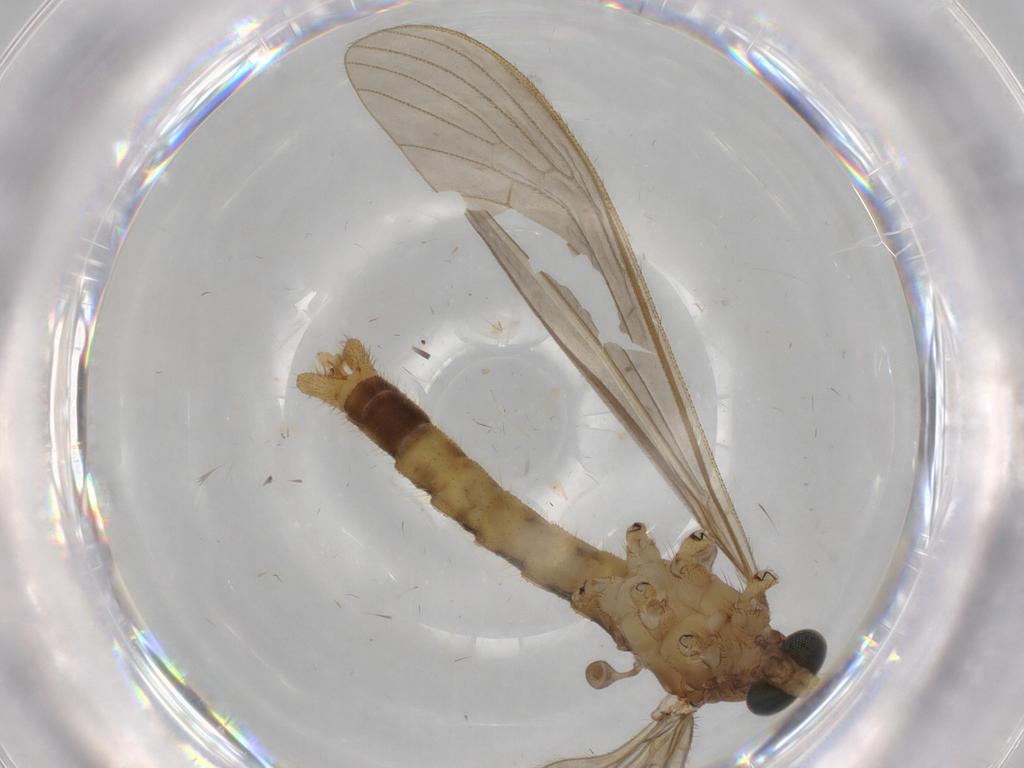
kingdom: Animalia
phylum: Arthropoda
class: Insecta
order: Diptera
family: Drosophilidae
